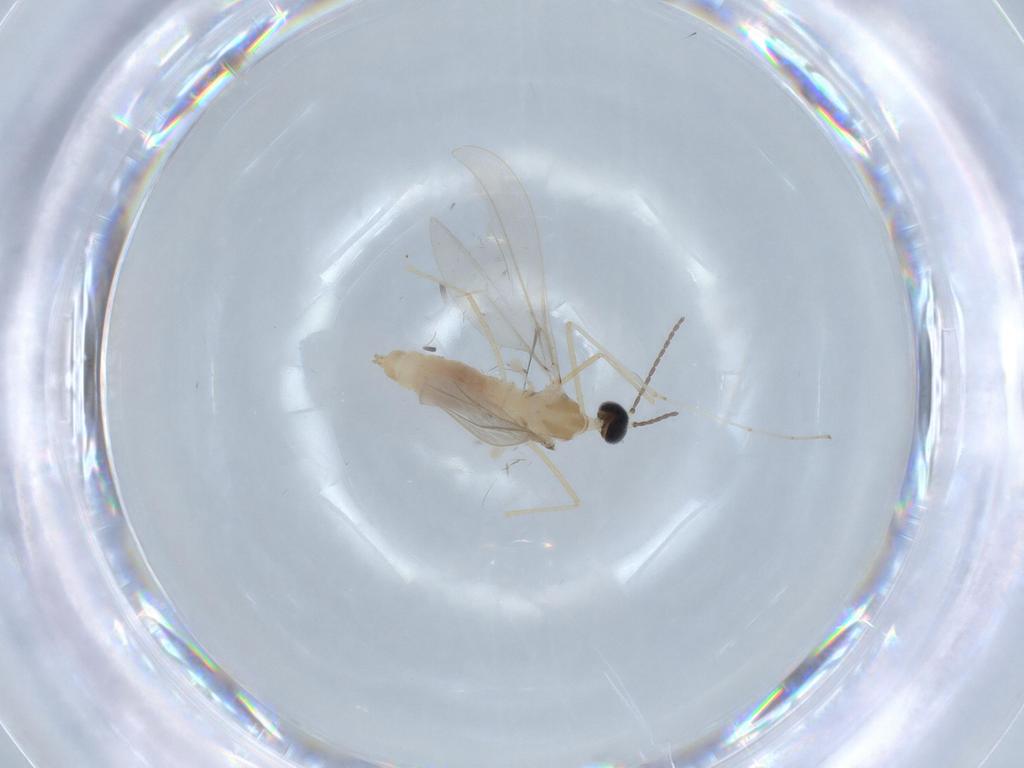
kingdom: Animalia
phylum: Arthropoda
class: Insecta
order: Diptera
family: Cecidomyiidae
